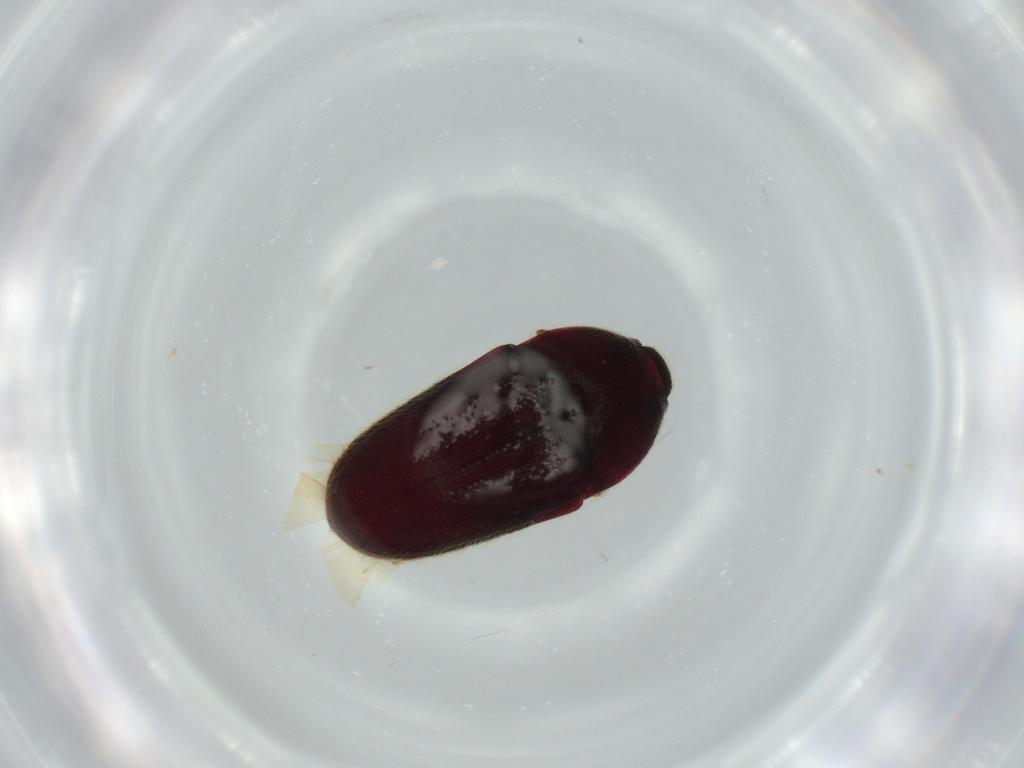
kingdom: Animalia
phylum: Arthropoda
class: Insecta
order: Coleoptera
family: Throscidae
